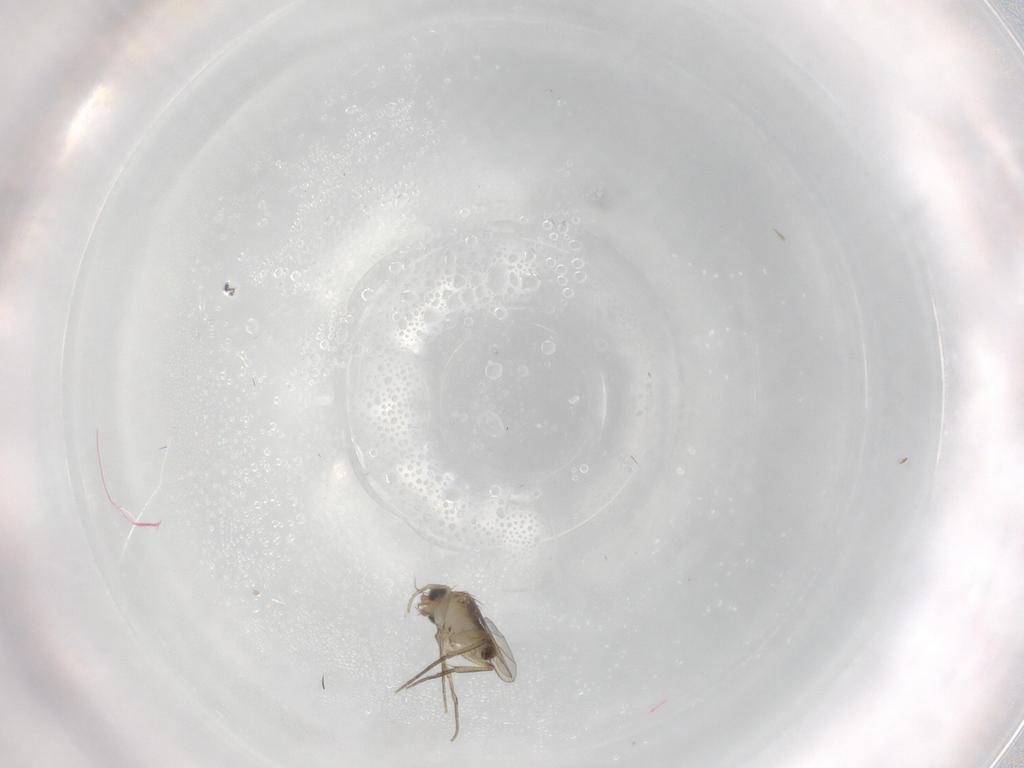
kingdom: Animalia
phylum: Arthropoda
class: Insecta
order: Diptera
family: Phoridae
